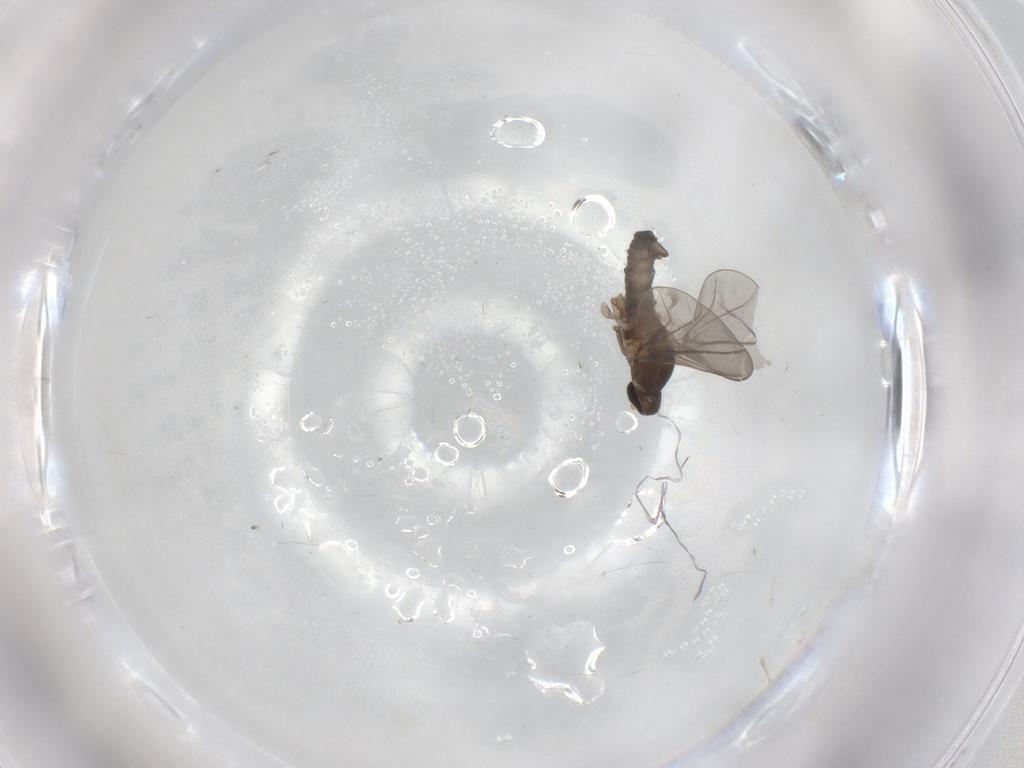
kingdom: Animalia
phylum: Arthropoda
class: Insecta
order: Diptera
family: Cecidomyiidae
